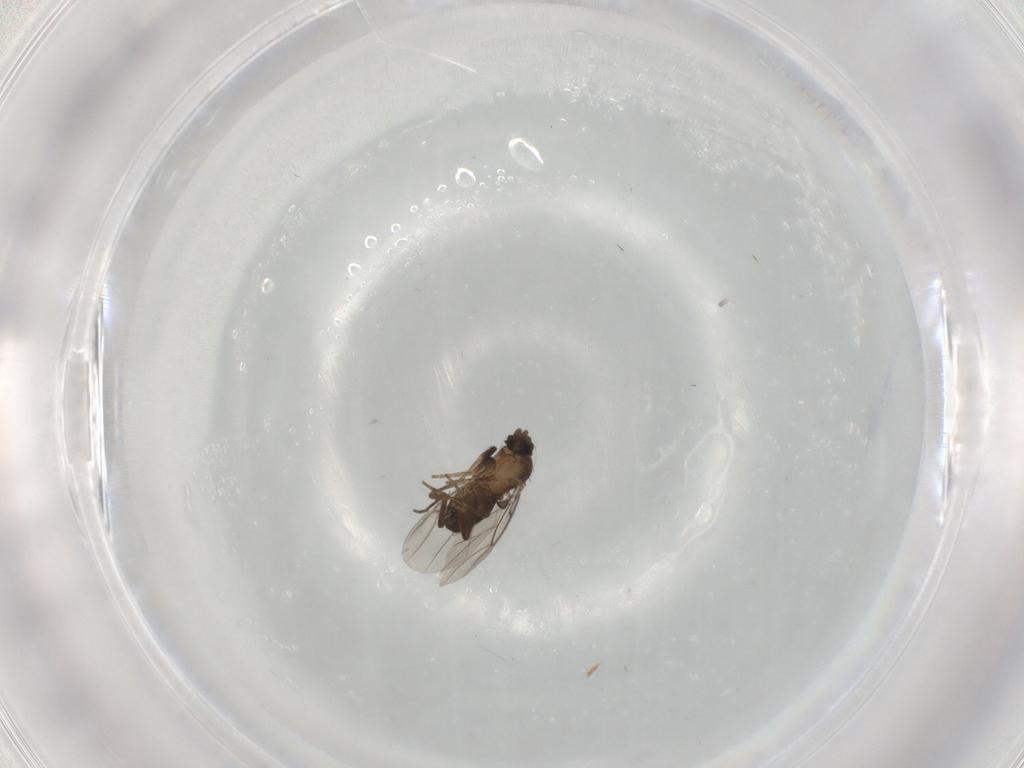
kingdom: Animalia
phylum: Arthropoda
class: Insecta
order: Diptera
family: Phoridae
